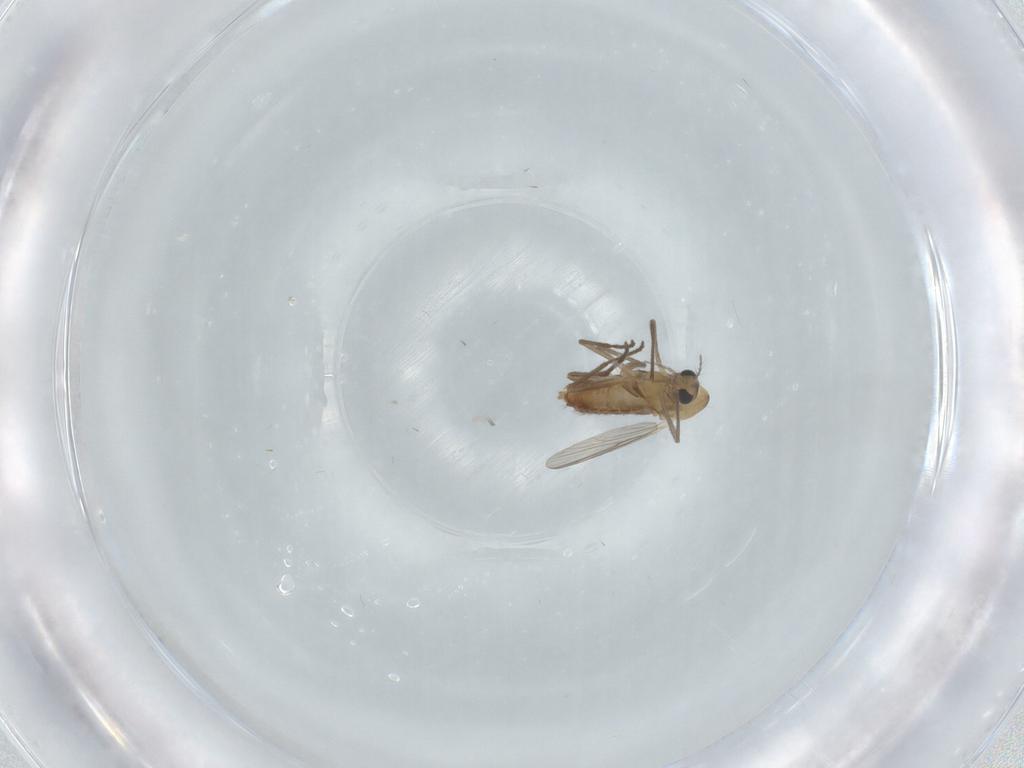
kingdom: Animalia
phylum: Arthropoda
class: Insecta
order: Diptera
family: Chironomidae
